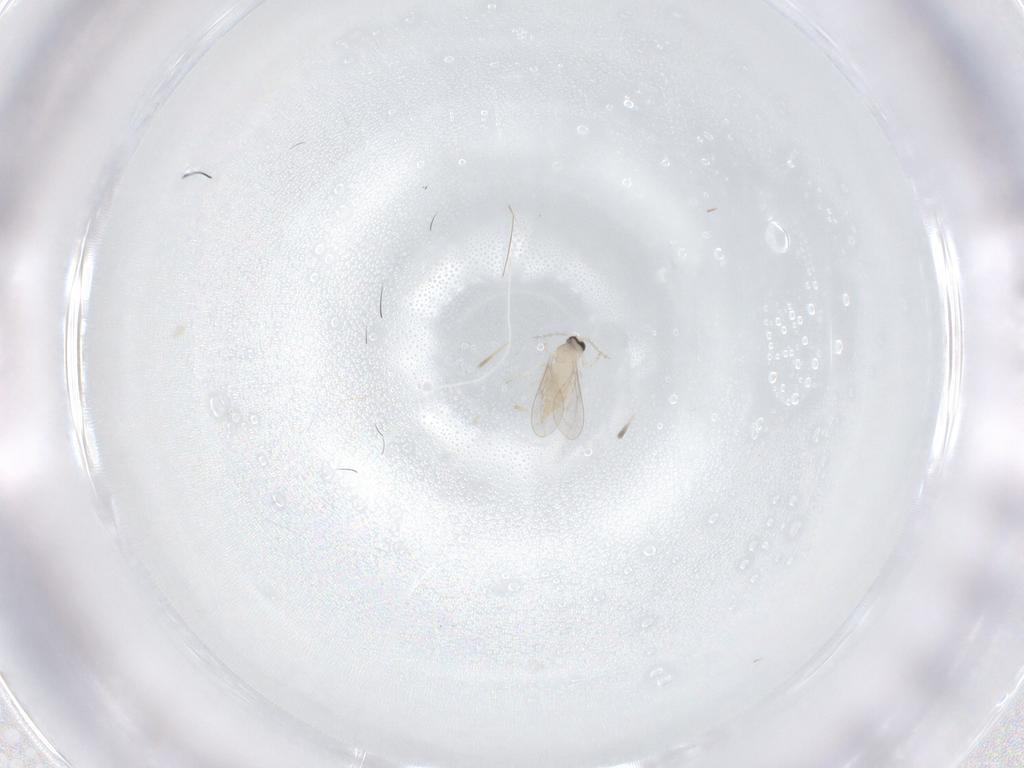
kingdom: Animalia
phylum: Arthropoda
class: Insecta
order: Diptera
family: Cecidomyiidae
